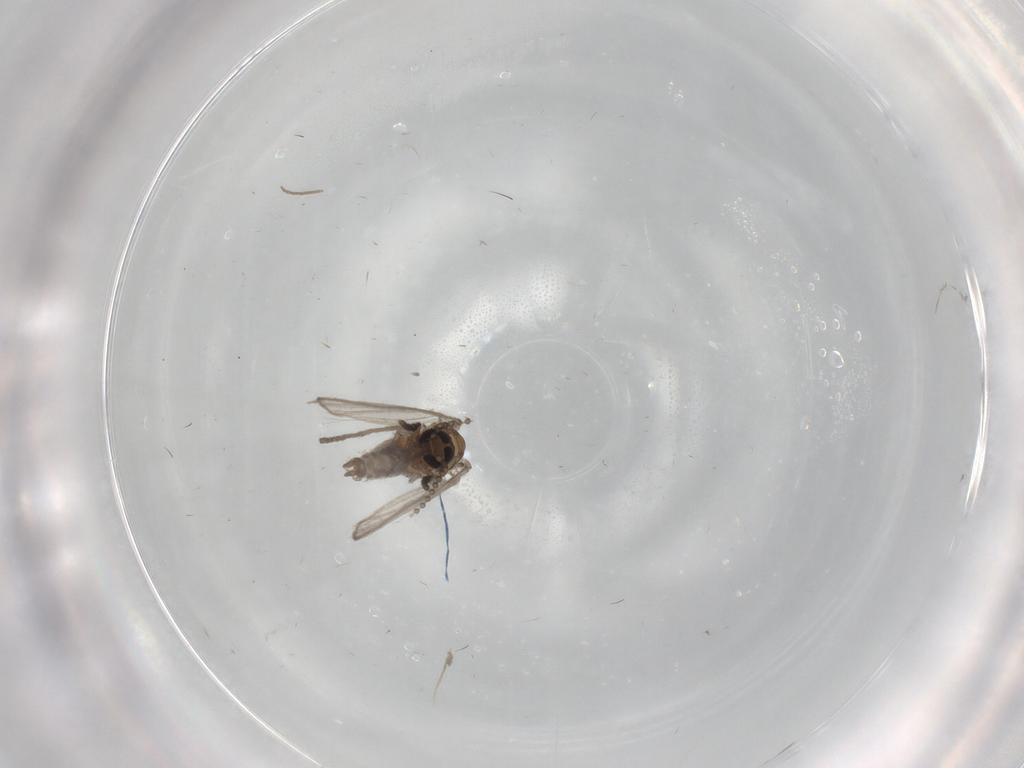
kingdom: Animalia
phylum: Arthropoda
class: Insecta
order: Diptera
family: Psychodidae
